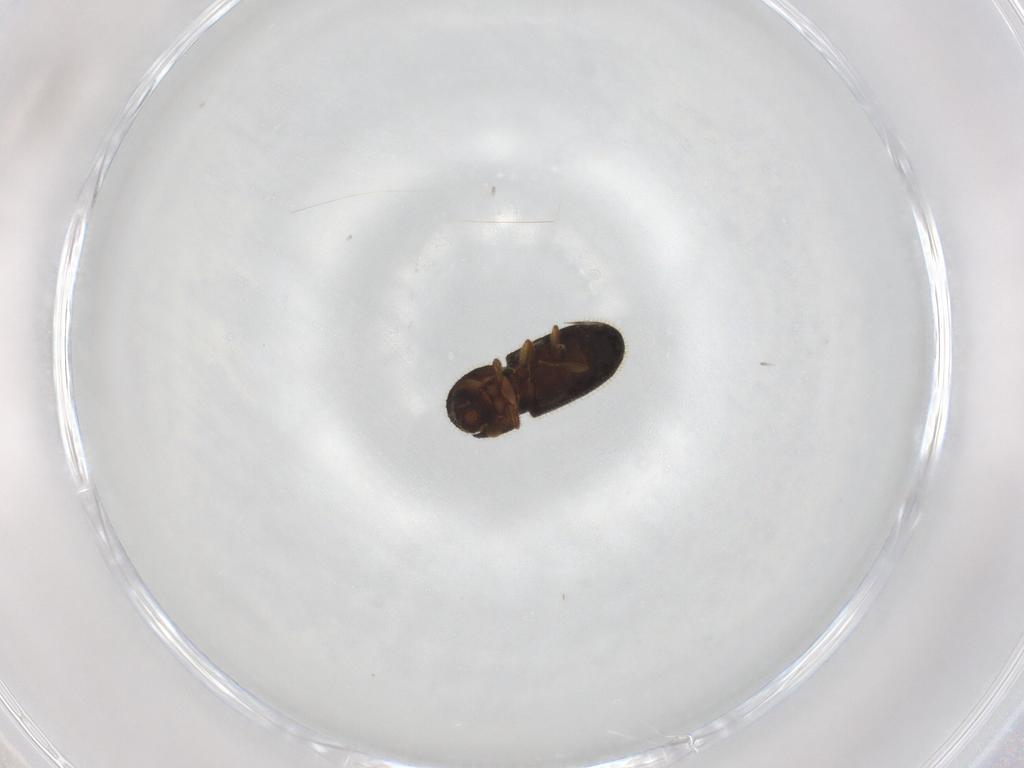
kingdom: Animalia
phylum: Arthropoda
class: Insecta
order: Coleoptera
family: Curculionidae
